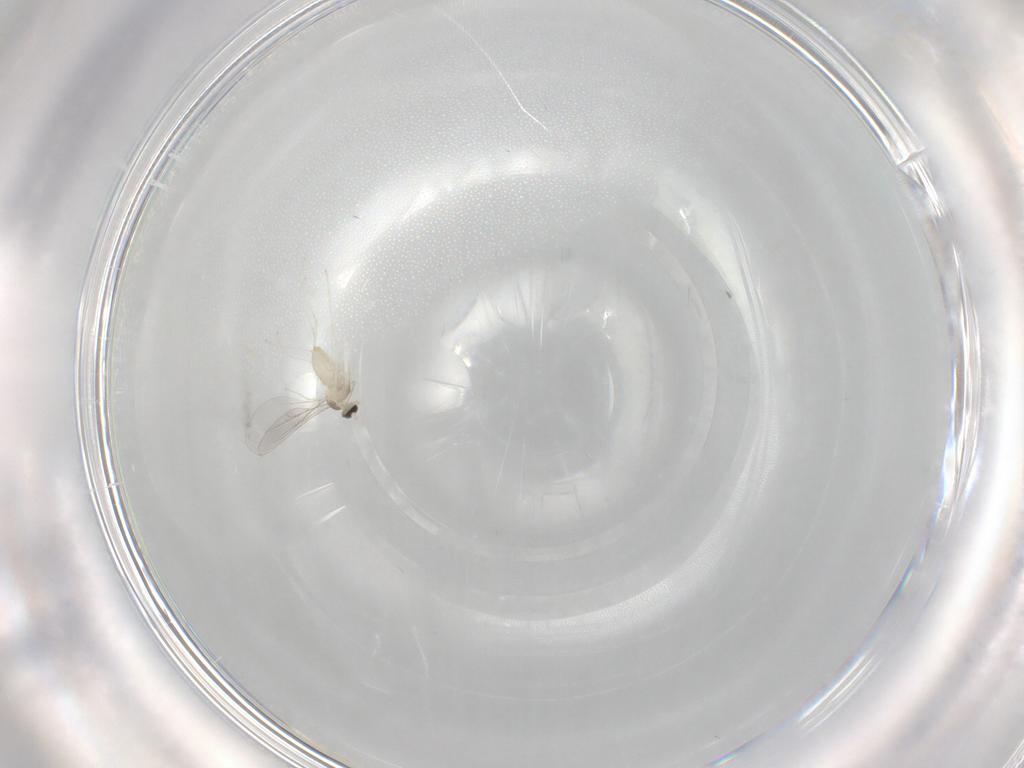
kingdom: Animalia
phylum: Arthropoda
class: Insecta
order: Diptera
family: Cecidomyiidae
